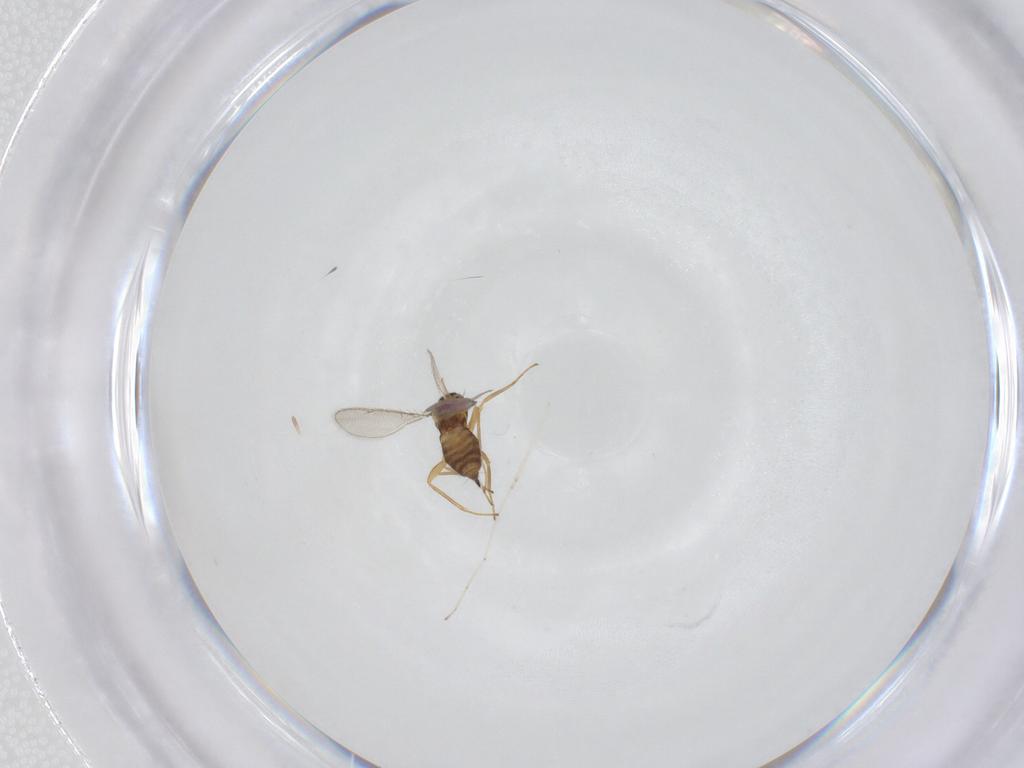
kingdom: Animalia
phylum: Arthropoda
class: Insecta
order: Hymenoptera
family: Eulophidae
